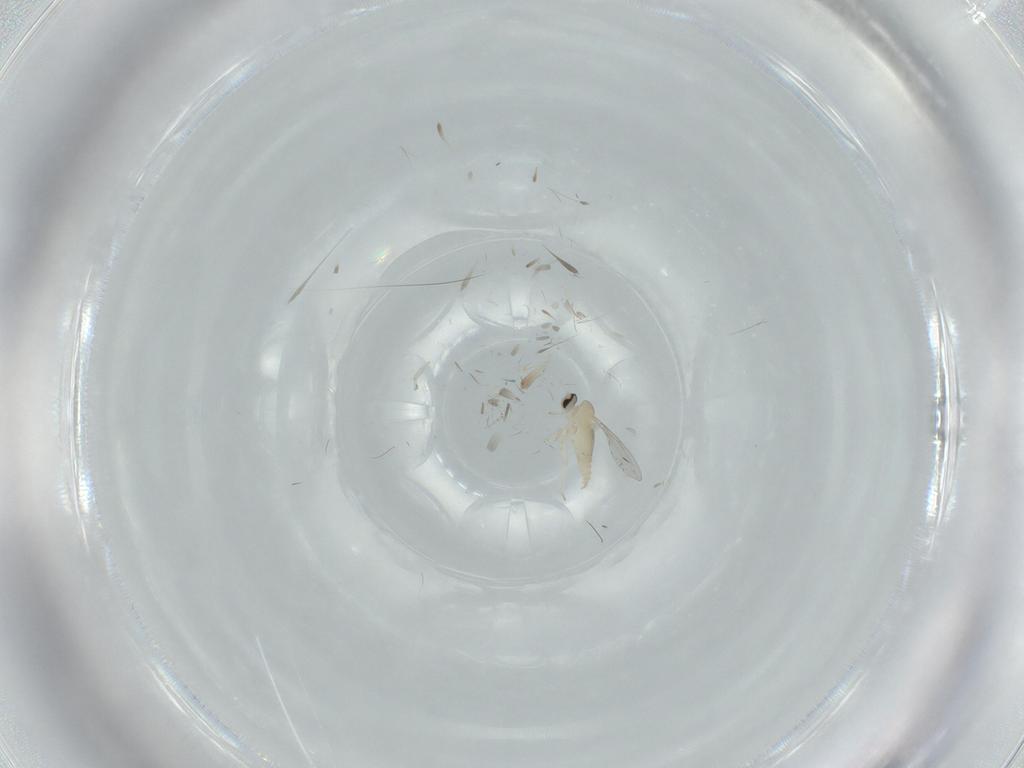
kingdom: Animalia
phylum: Arthropoda
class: Insecta
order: Diptera
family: Cecidomyiidae
